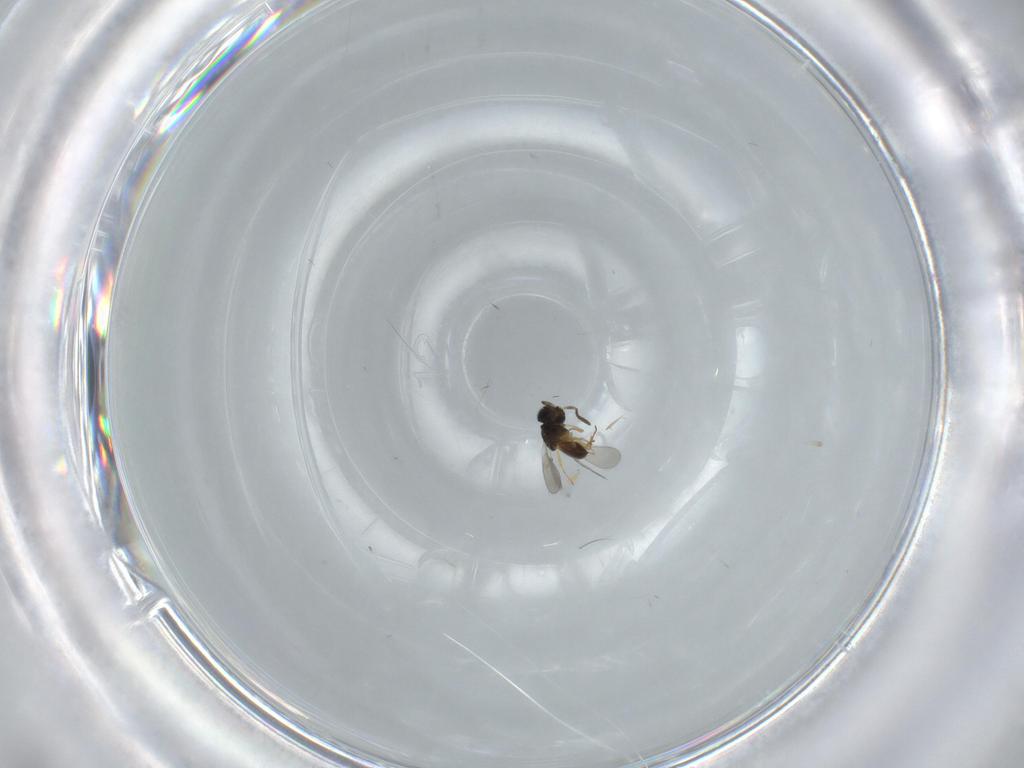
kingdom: Animalia
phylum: Arthropoda
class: Insecta
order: Hymenoptera
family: Scelionidae
